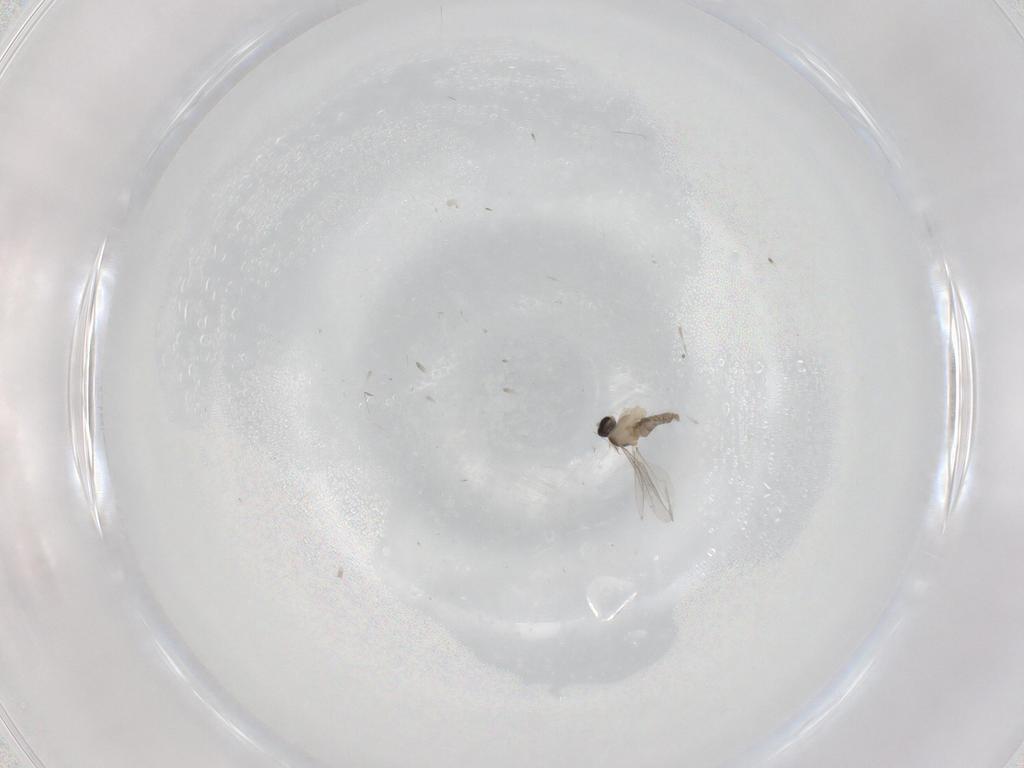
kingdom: Animalia
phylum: Arthropoda
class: Insecta
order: Diptera
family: Cecidomyiidae
